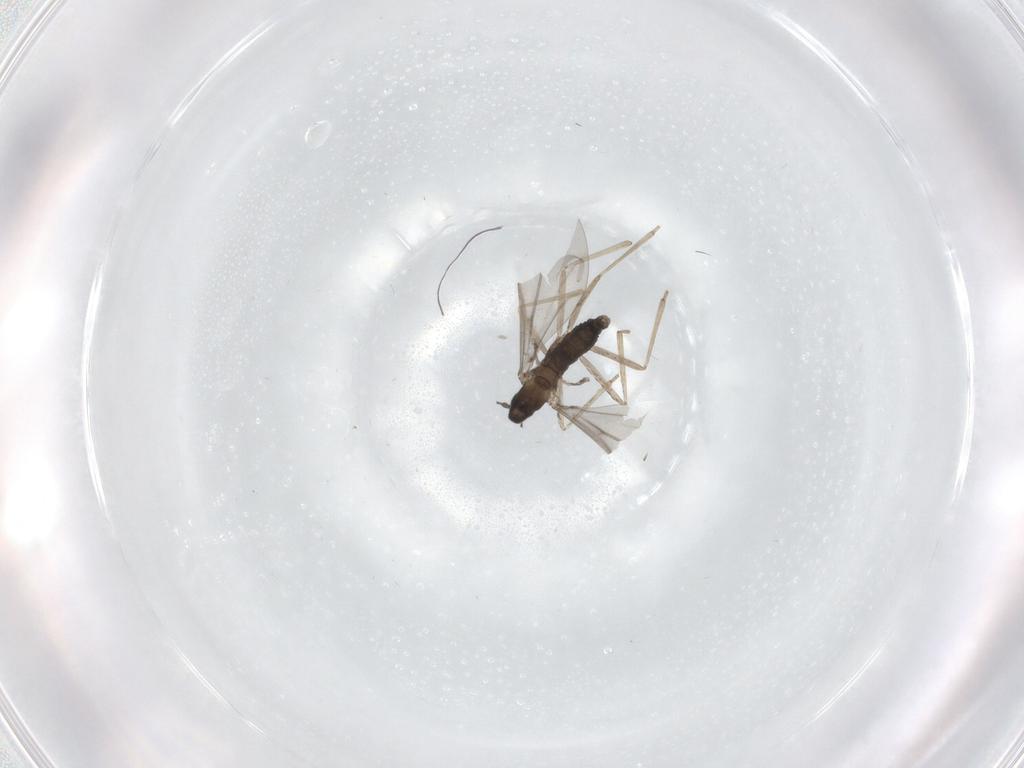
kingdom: Animalia
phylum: Arthropoda
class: Insecta
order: Diptera
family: Cecidomyiidae
